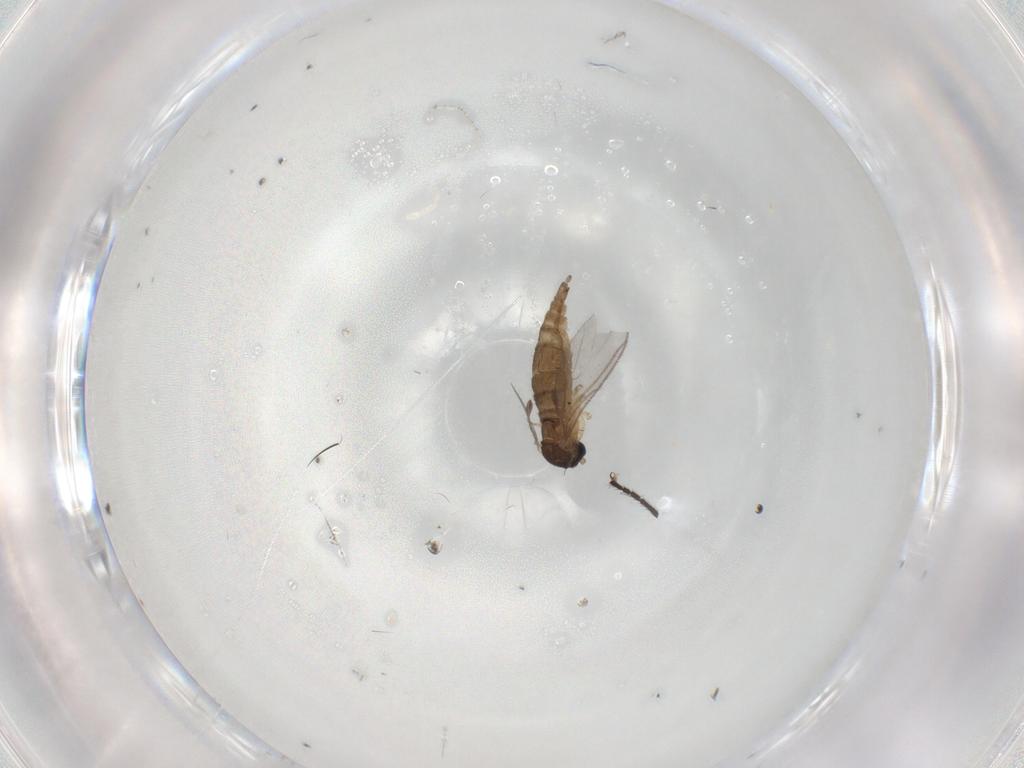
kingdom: Animalia
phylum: Arthropoda
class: Insecta
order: Diptera
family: Sciaridae
